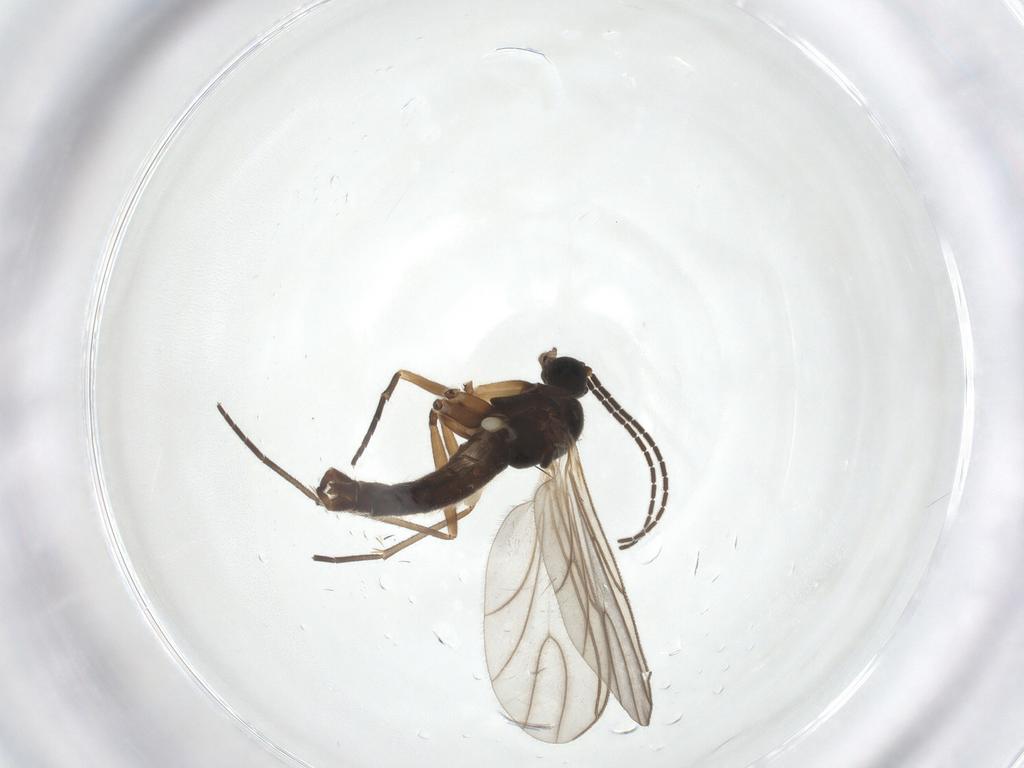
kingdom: Animalia
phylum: Arthropoda
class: Insecta
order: Diptera
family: Sciaridae
